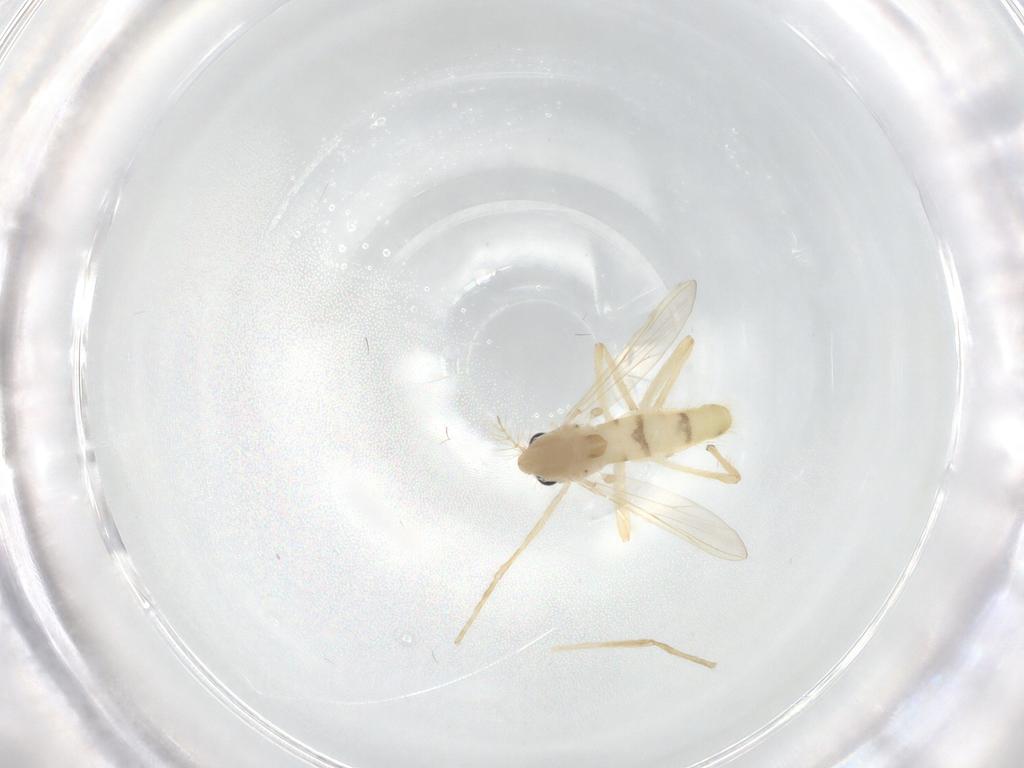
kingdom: Animalia
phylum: Arthropoda
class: Insecta
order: Diptera
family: Chironomidae
